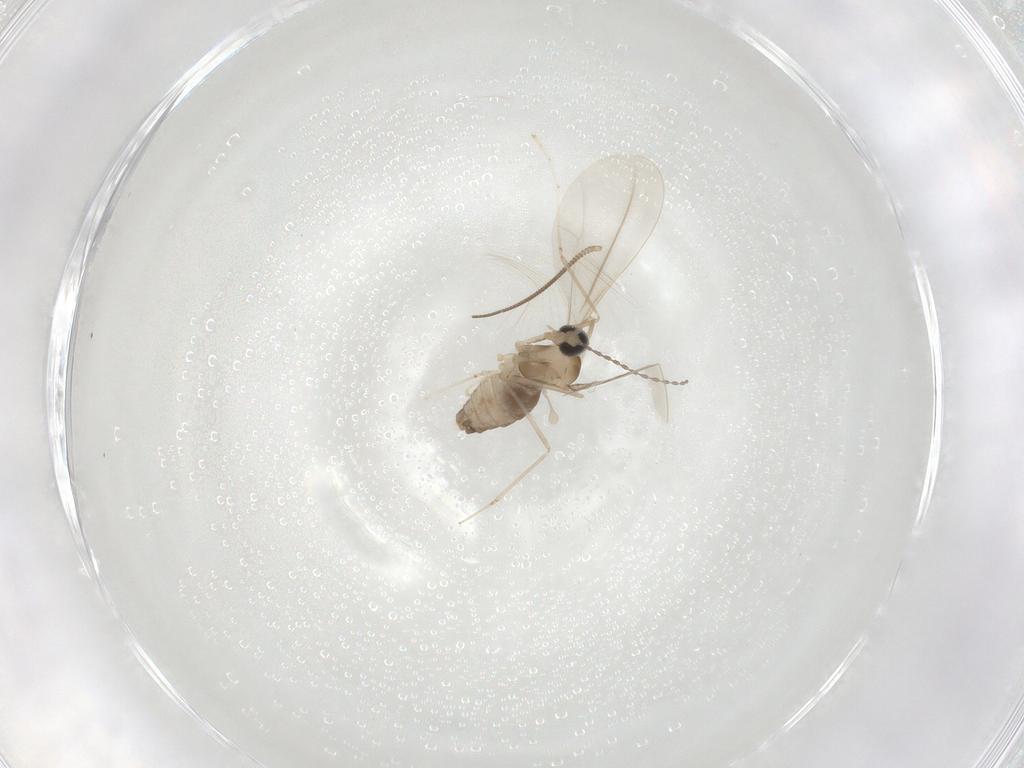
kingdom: Animalia
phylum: Arthropoda
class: Insecta
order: Diptera
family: Cecidomyiidae
